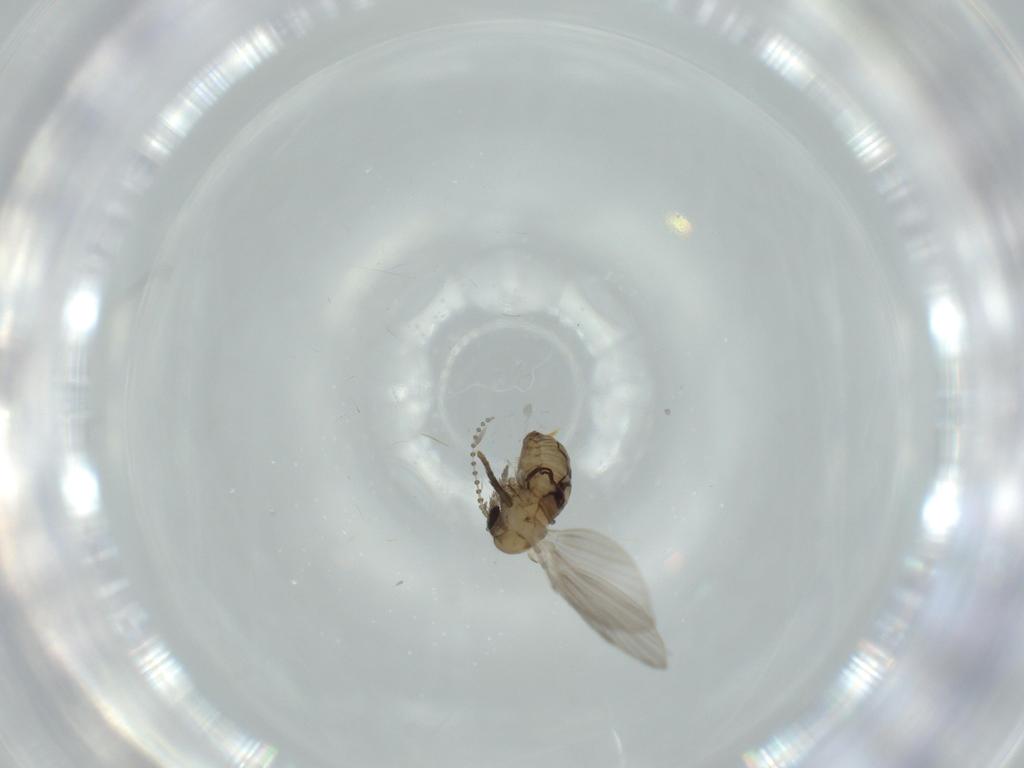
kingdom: Animalia
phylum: Arthropoda
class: Insecta
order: Diptera
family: Psychodidae
